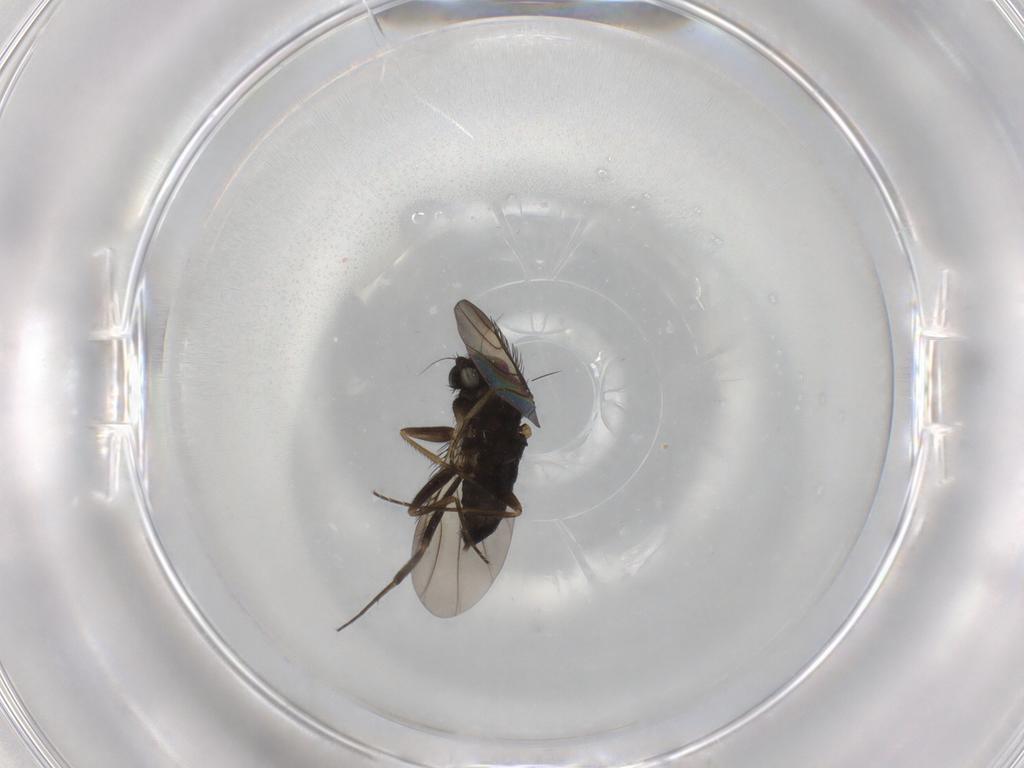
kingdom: Animalia
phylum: Arthropoda
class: Insecta
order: Diptera
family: Phoridae
